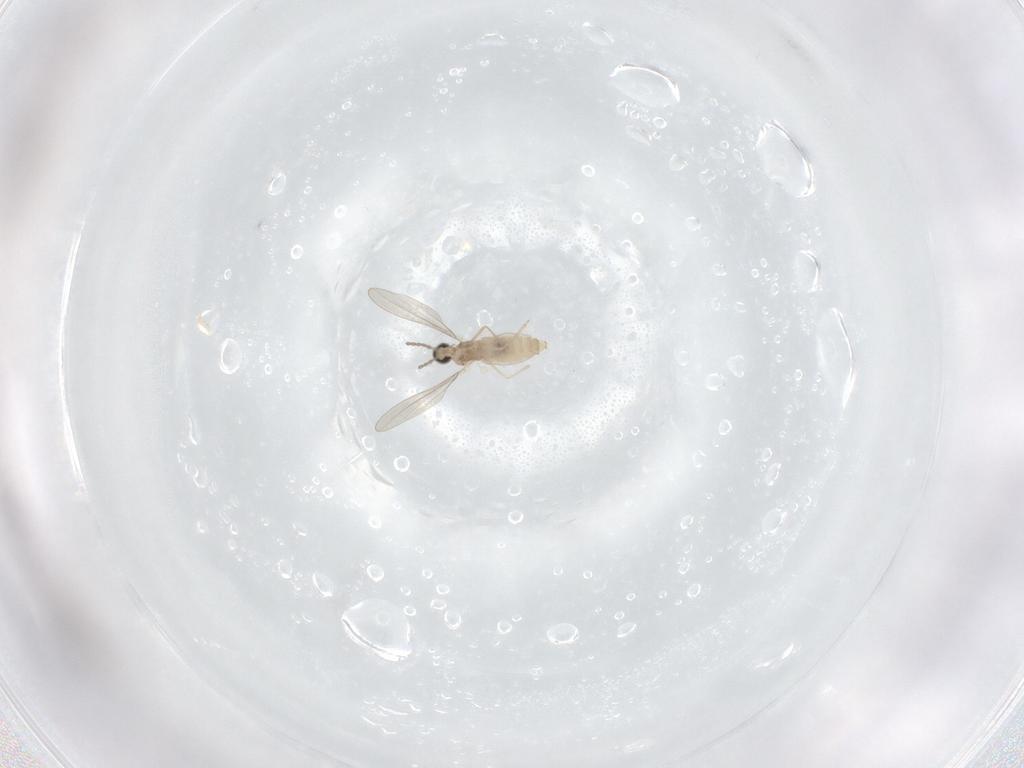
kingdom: Animalia
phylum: Arthropoda
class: Insecta
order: Diptera
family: Cecidomyiidae
